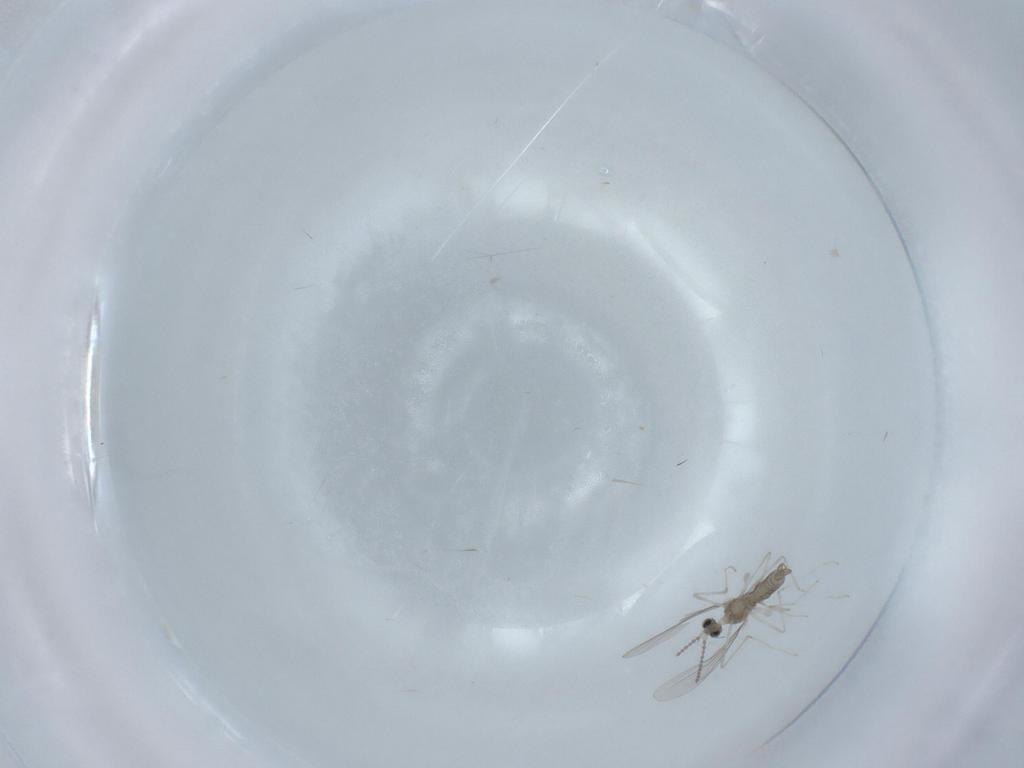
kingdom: Animalia
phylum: Arthropoda
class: Insecta
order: Diptera
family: Cecidomyiidae
